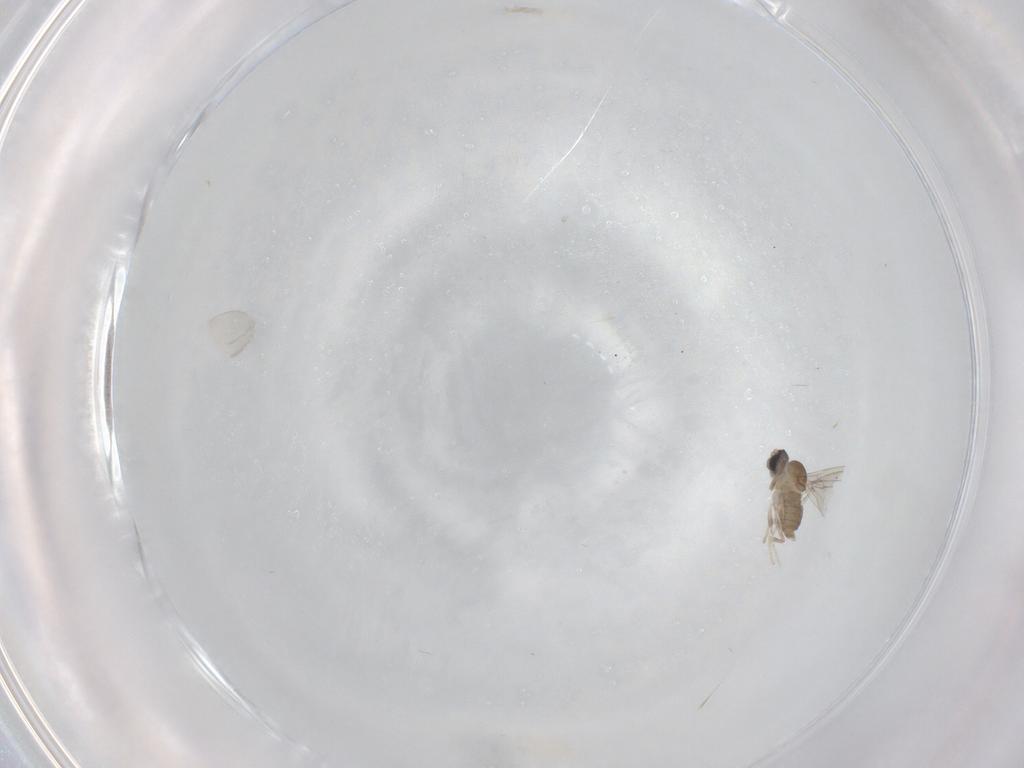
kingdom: Animalia
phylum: Arthropoda
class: Insecta
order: Diptera
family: Cecidomyiidae
